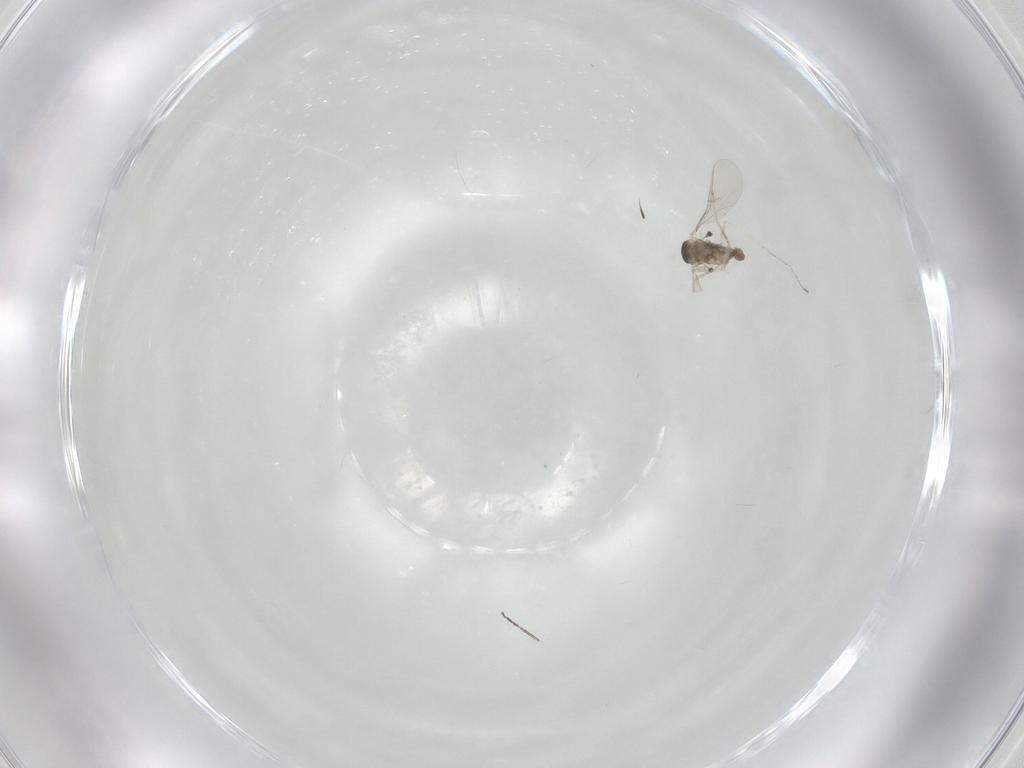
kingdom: Animalia
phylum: Arthropoda
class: Insecta
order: Diptera
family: Cecidomyiidae
